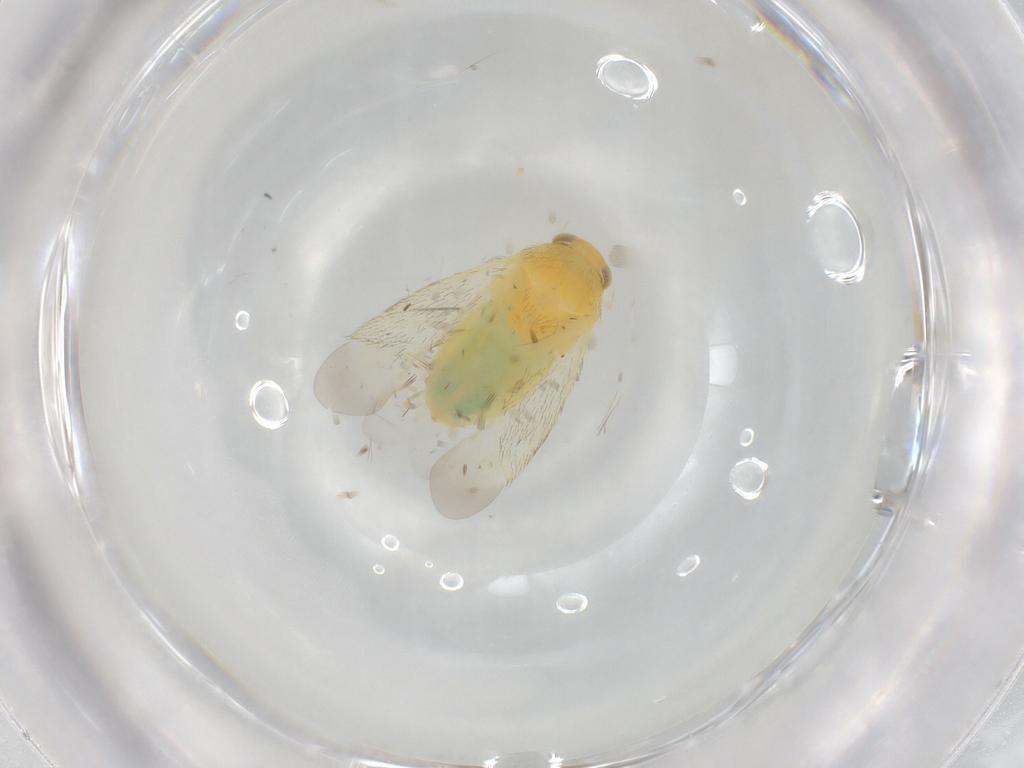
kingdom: Animalia
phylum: Arthropoda
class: Insecta
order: Hemiptera
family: Miridae
